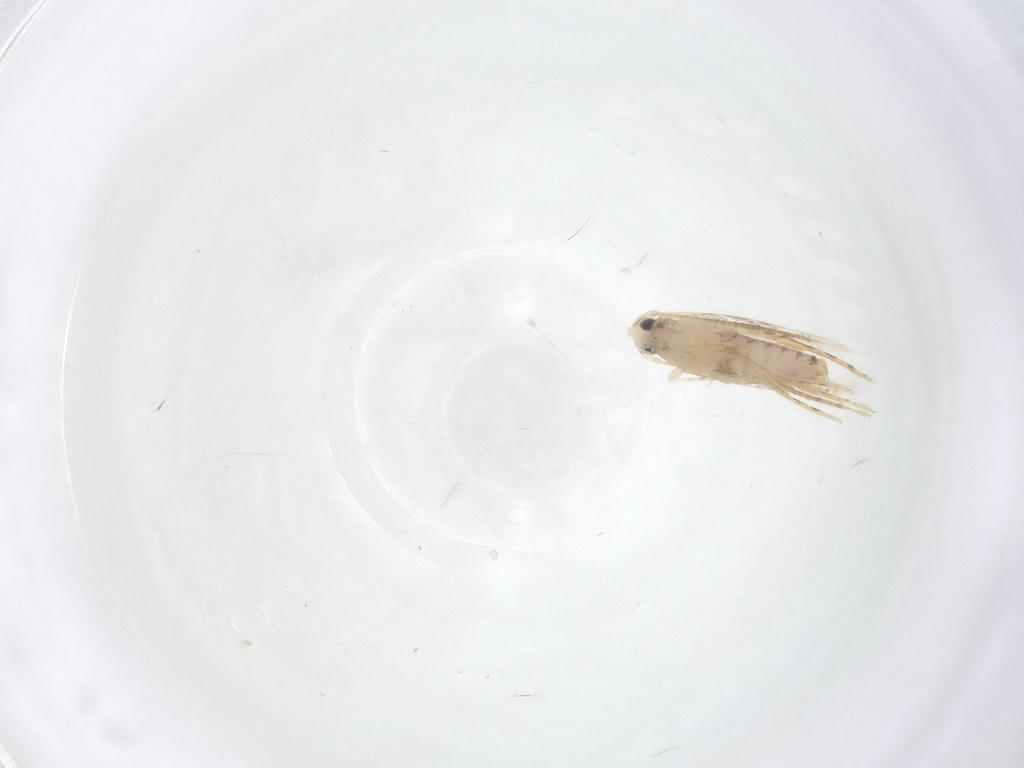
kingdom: Animalia
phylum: Arthropoda
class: Insecta
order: Lepidoptera
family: Tineidae
